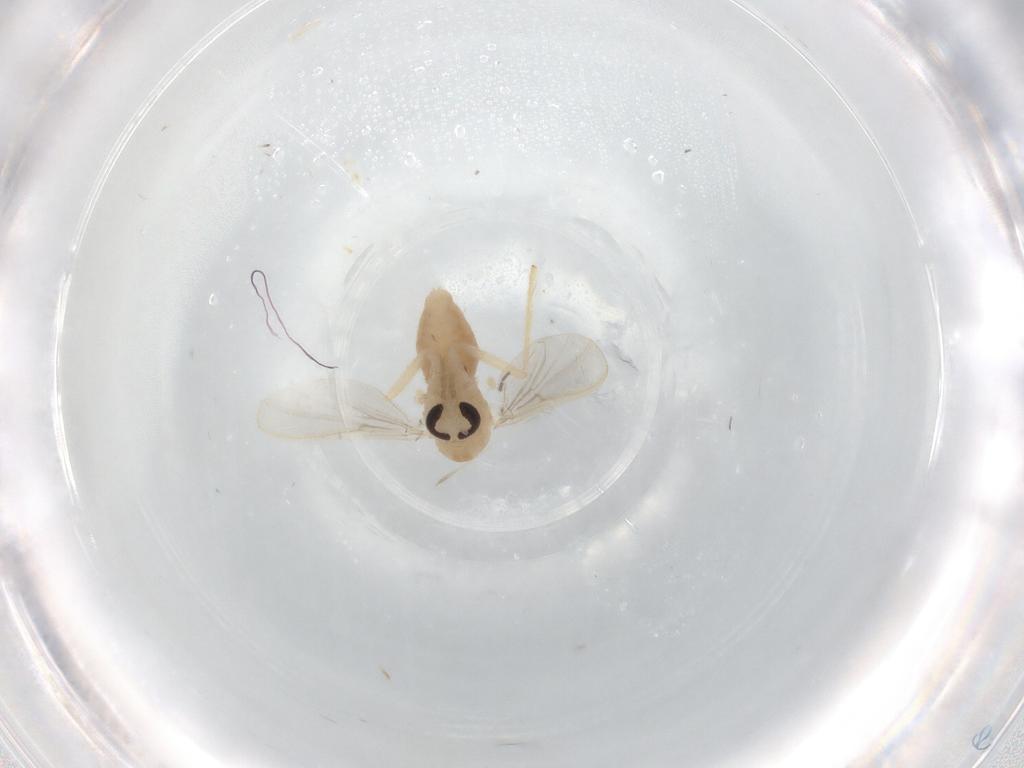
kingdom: Animalia
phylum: Arthropoda
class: Insecta
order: Diptera
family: Chironomidae
